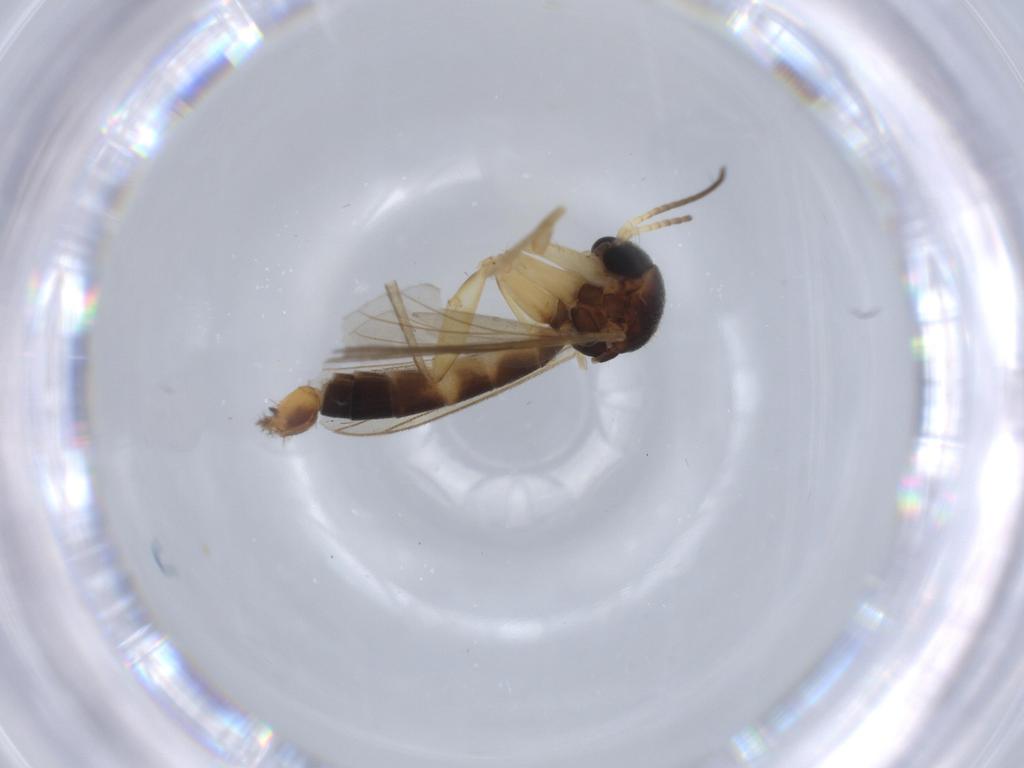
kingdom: Animalia
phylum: Arthropoda
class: Insecta
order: Diptera
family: Chironomidae
